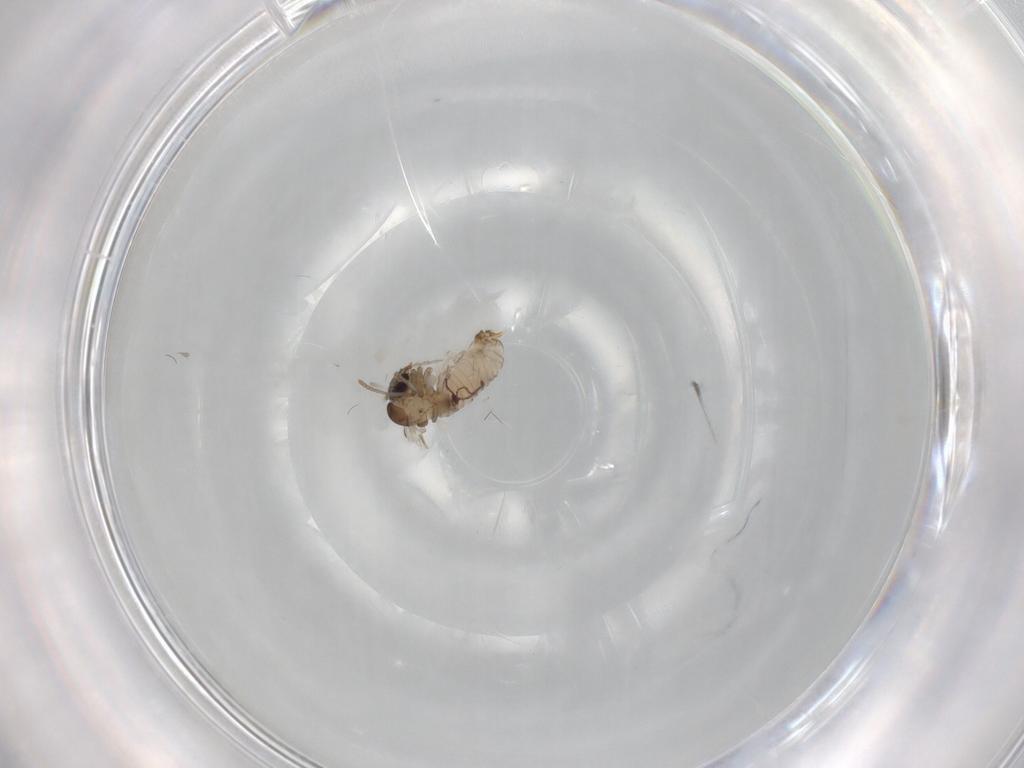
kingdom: Animalia
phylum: Arthropoda
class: Insecta
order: Diptera
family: Psychodidae
